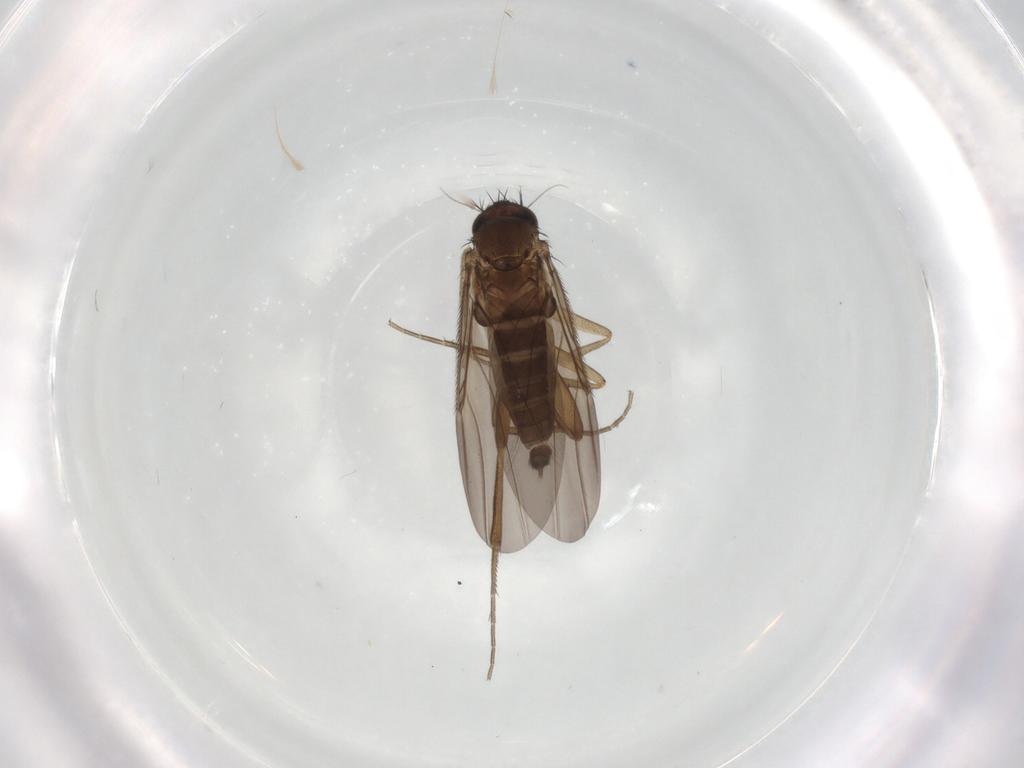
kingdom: Animalia
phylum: Arthropoda
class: Insecta
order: Diptera
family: Phoridae
